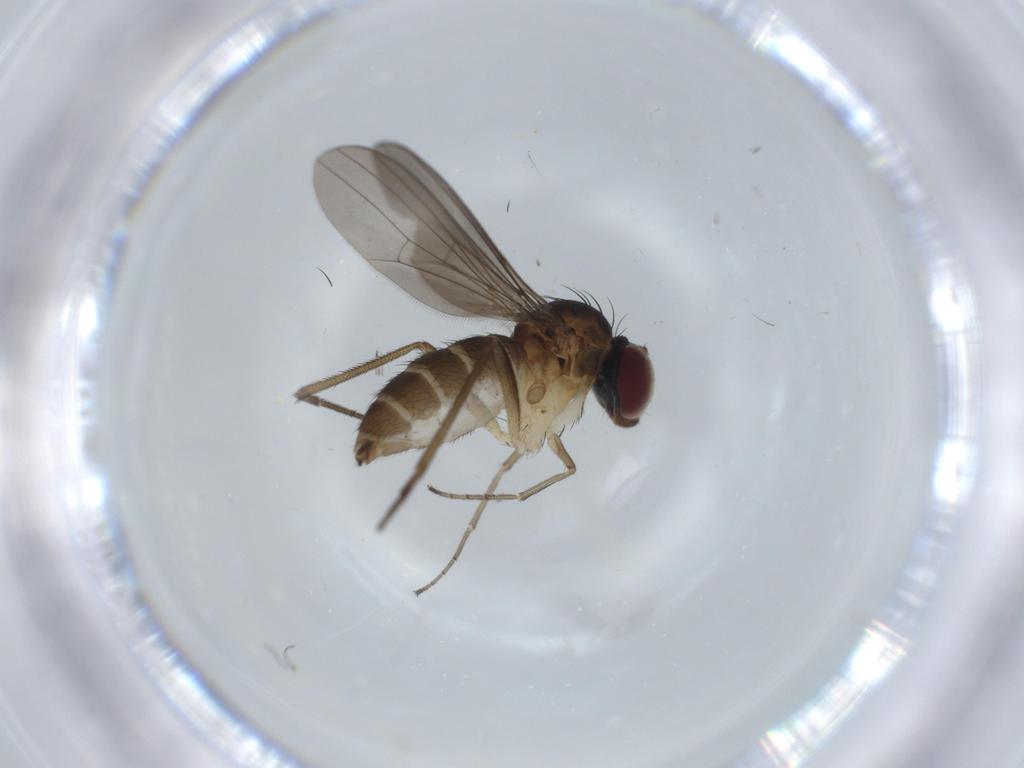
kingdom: Animalia
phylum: Arthropoda
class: Insecta
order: Diptera
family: Dolichopodidae
